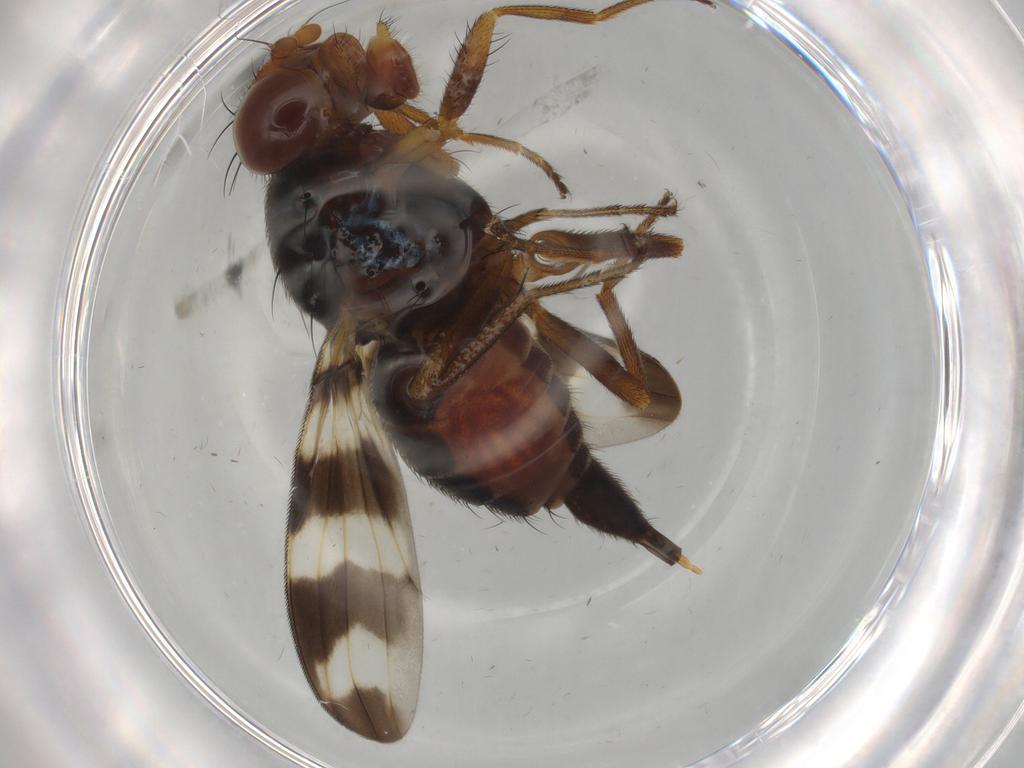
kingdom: Animalia
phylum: Arthropoda
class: Insecta
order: Diptera
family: Ulidiidae
